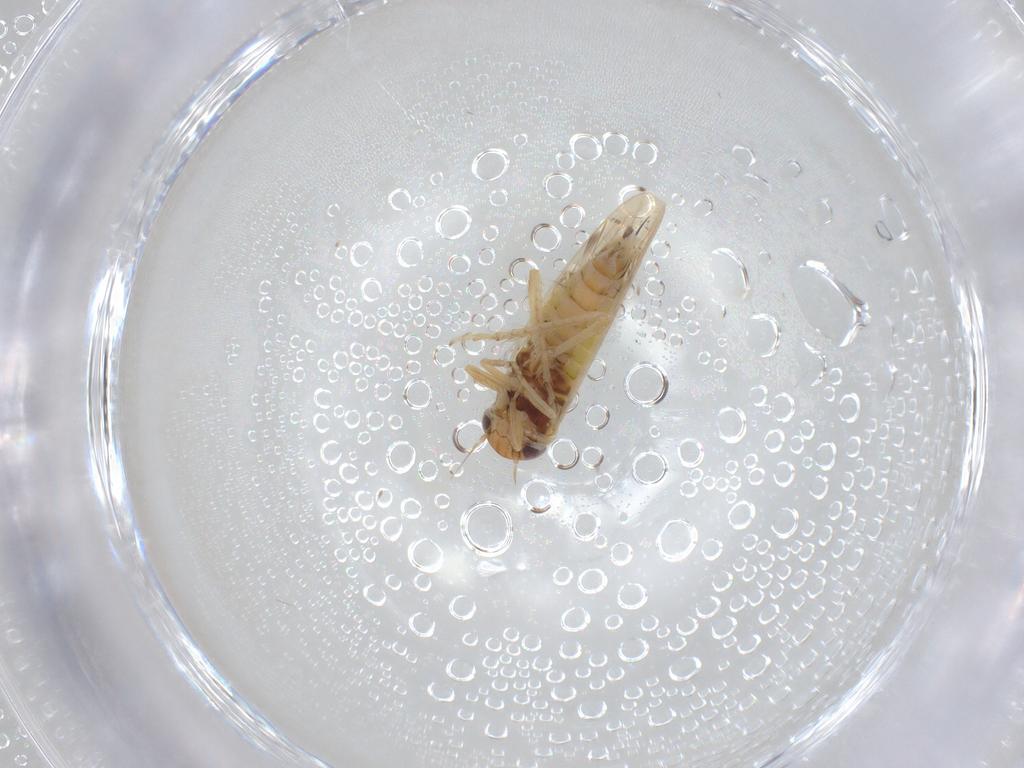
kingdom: Animalia
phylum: Arthropoda
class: Insecta
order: Hemiptera
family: Cicadellidae
